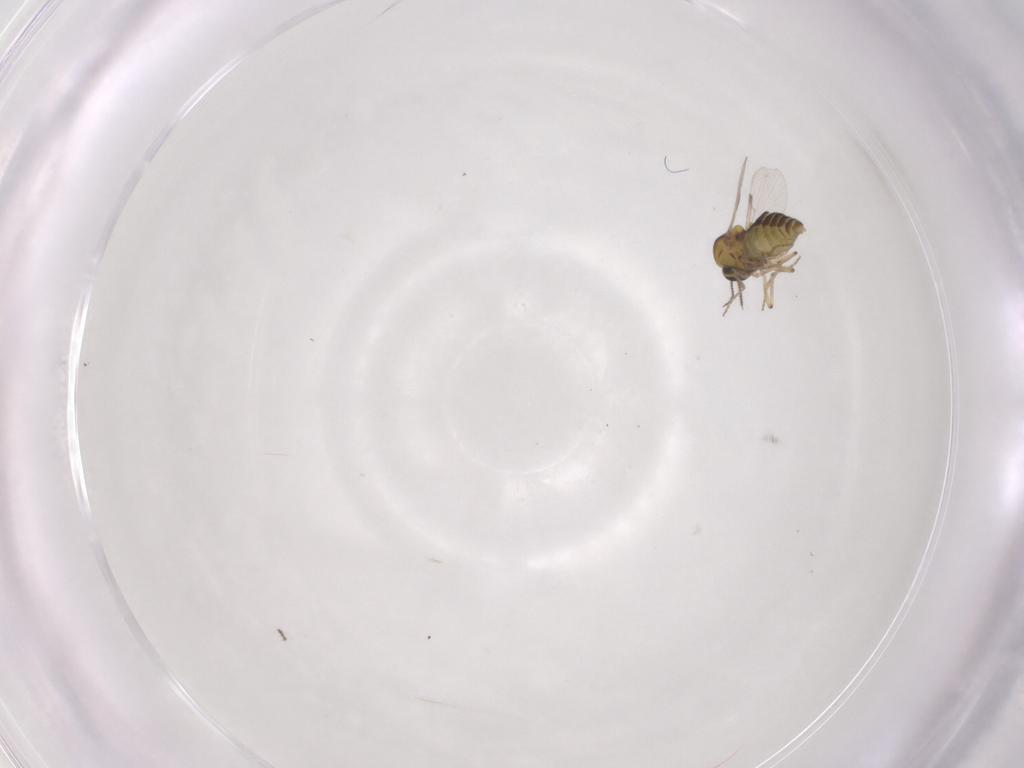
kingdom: Animalia
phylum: Arthropoda
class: Insecta
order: Diptera
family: Ceratopogonidae
